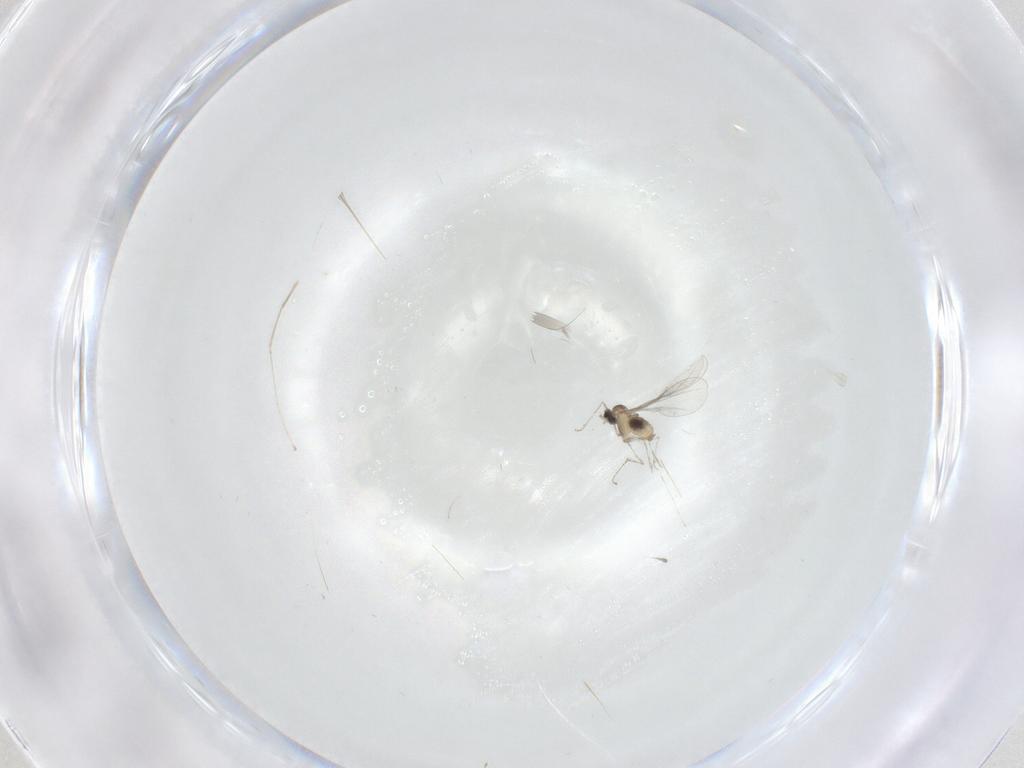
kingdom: Animalia
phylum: Arthropoda
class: Insecta
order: Diptera
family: Cecidomyiidae
